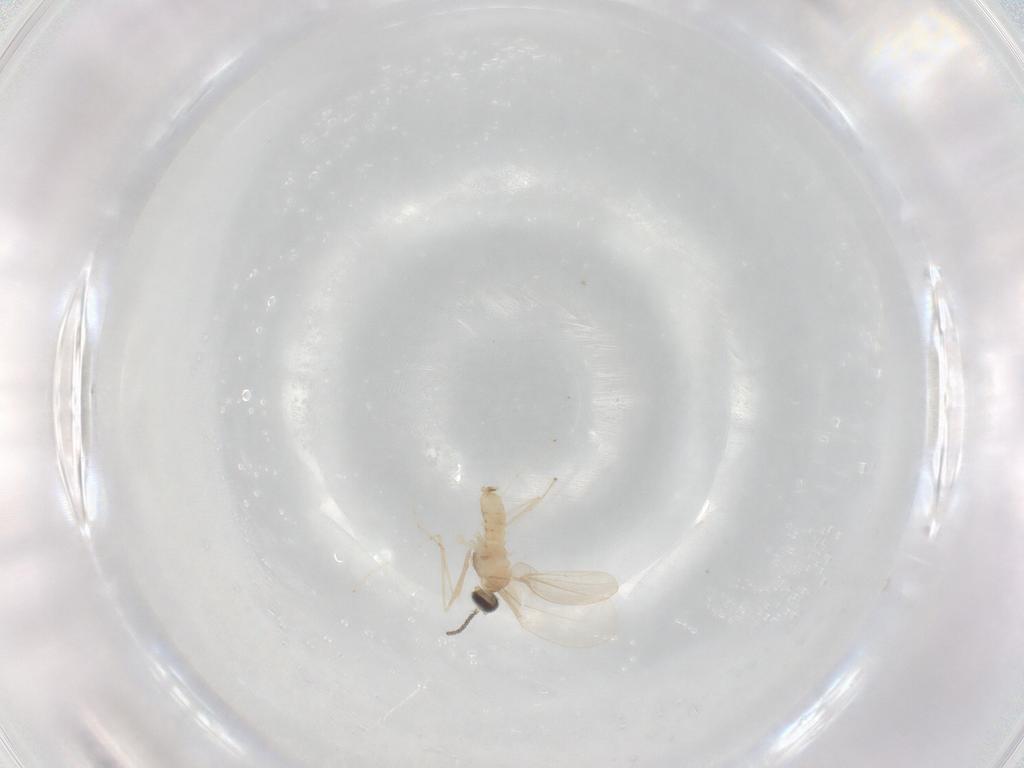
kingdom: Animalia
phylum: Arthropoda
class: Insecta
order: Diptera
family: Cecidomyiidae
